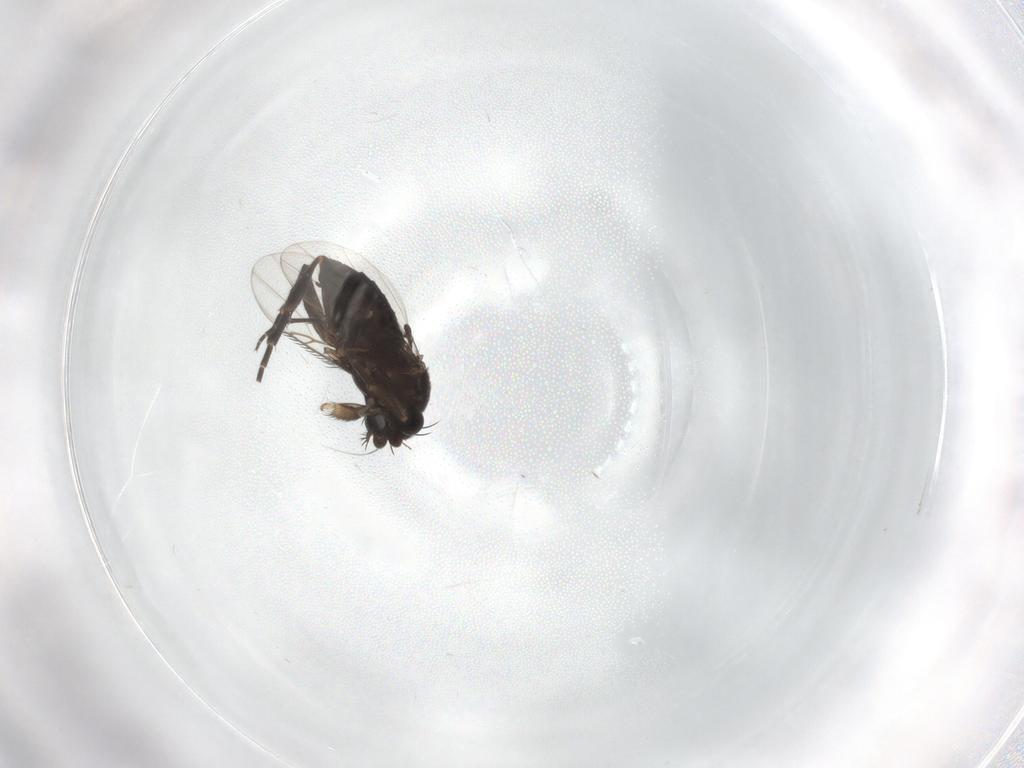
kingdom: Animalia
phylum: Arthropoda
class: Insecta
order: Diptera
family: Phoridae
